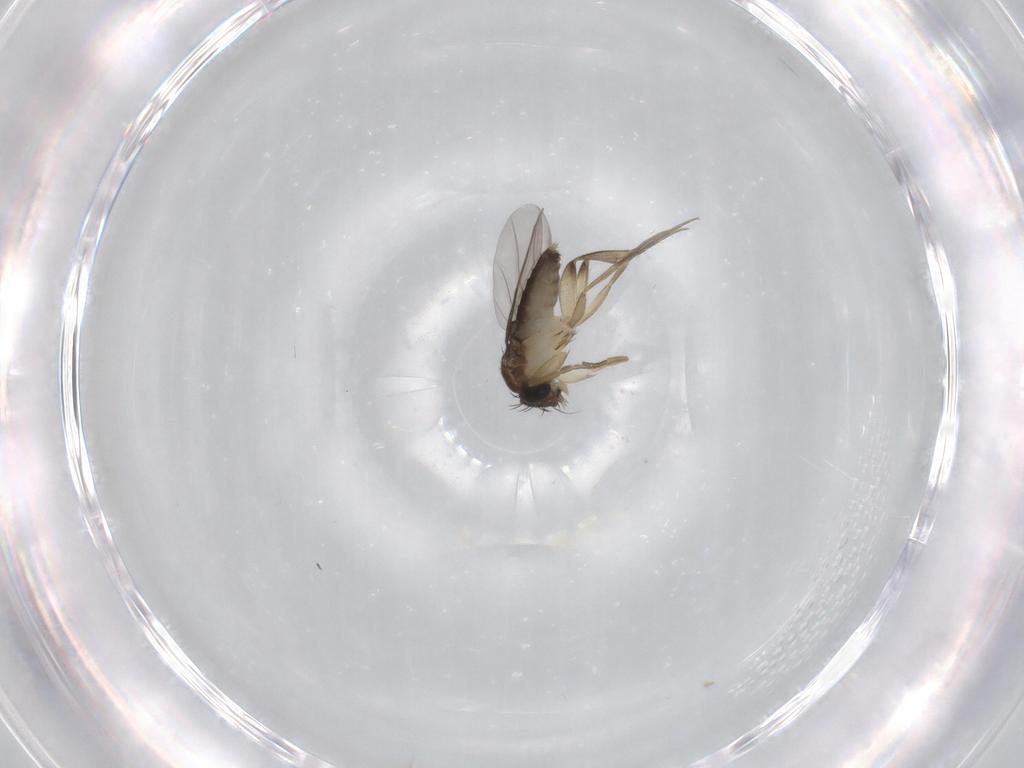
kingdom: Animalia
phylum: Arthropoda
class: Insecta
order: Diptera
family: Phoridae
